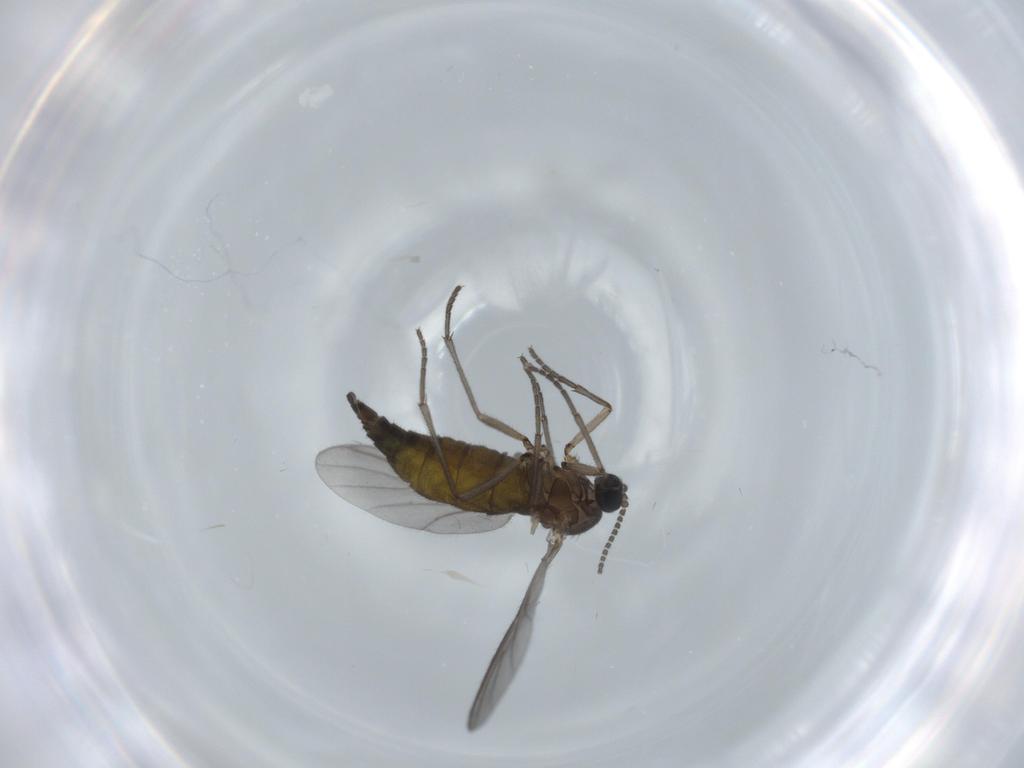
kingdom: Animalia
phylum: Arthropoda
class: Insecta
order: Diptera
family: Sciaridae
